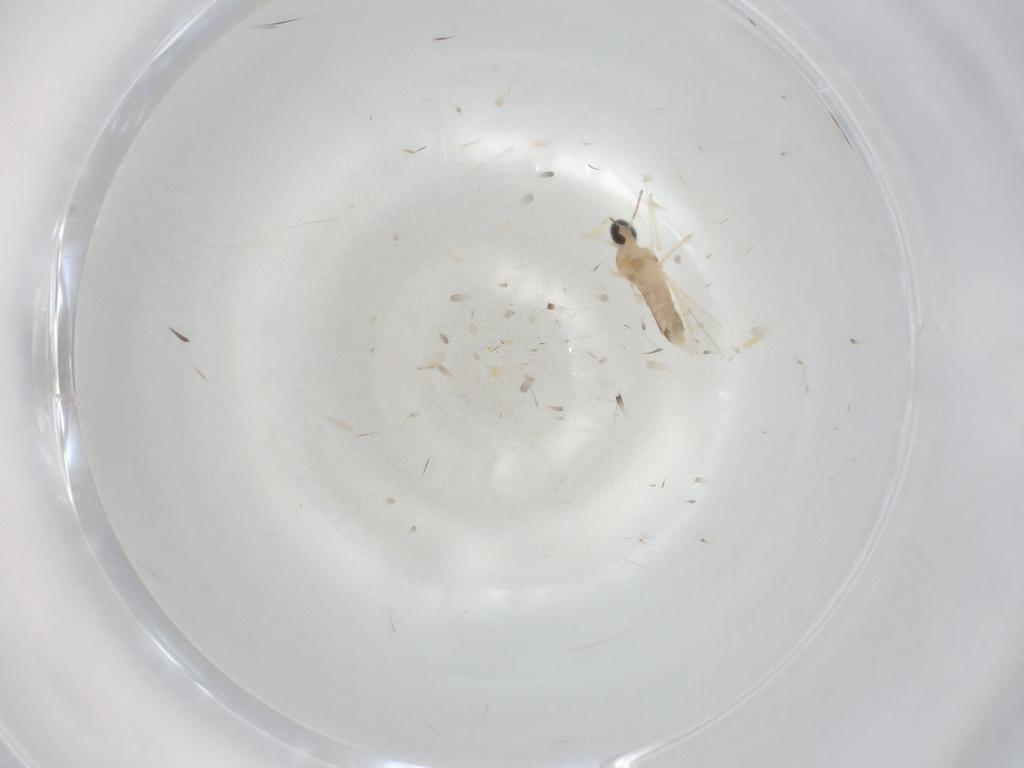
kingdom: Animalia
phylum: Arthropoda
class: Insecta
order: Diptera
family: Cecidomyiidae
